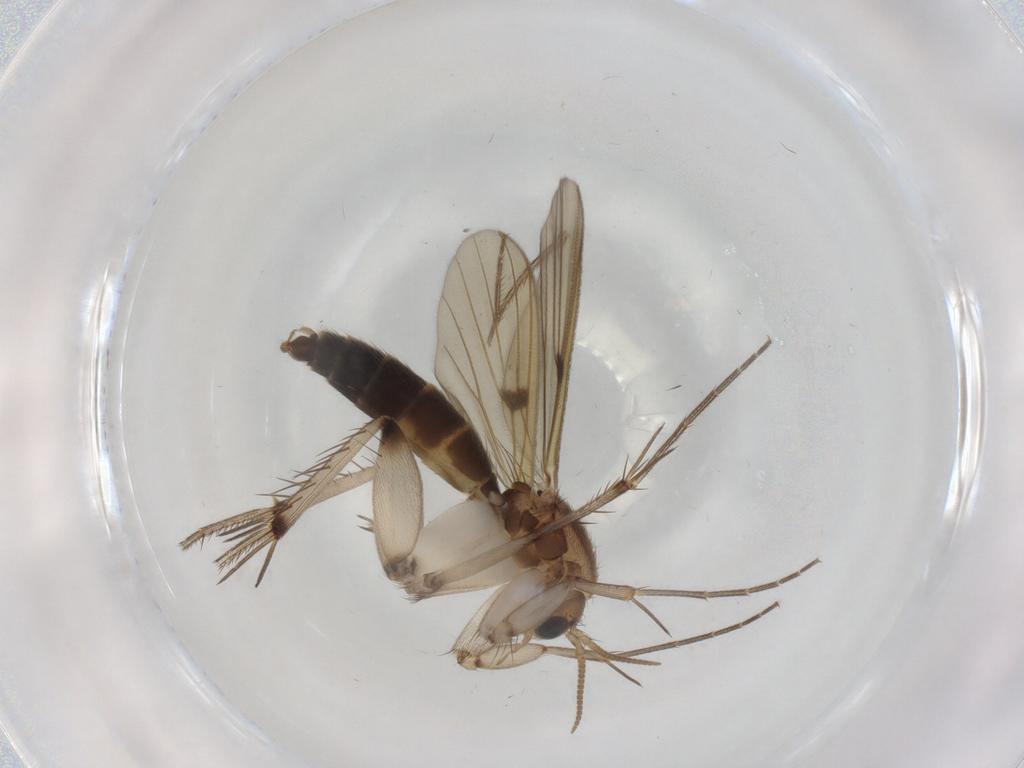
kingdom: Animalia
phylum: Arthropoda
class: Insecta
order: Diptera
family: Mycetophilidae
